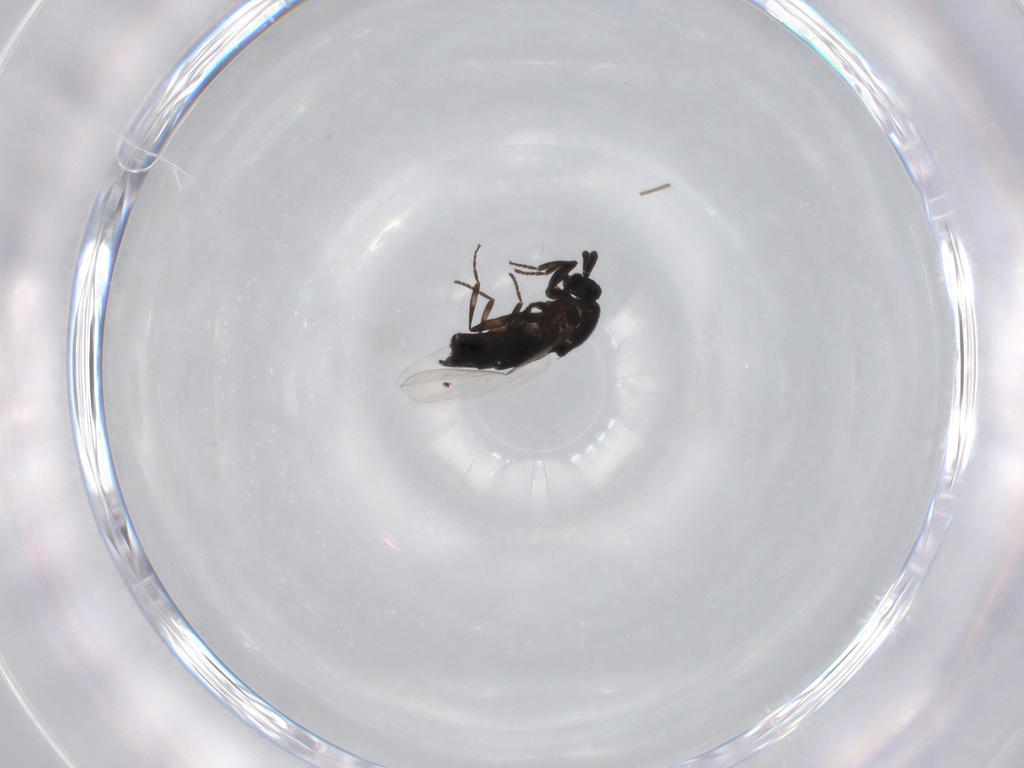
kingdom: Animalia
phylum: Arthropoda
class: Insecta
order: Diptera
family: Scatopsidae
